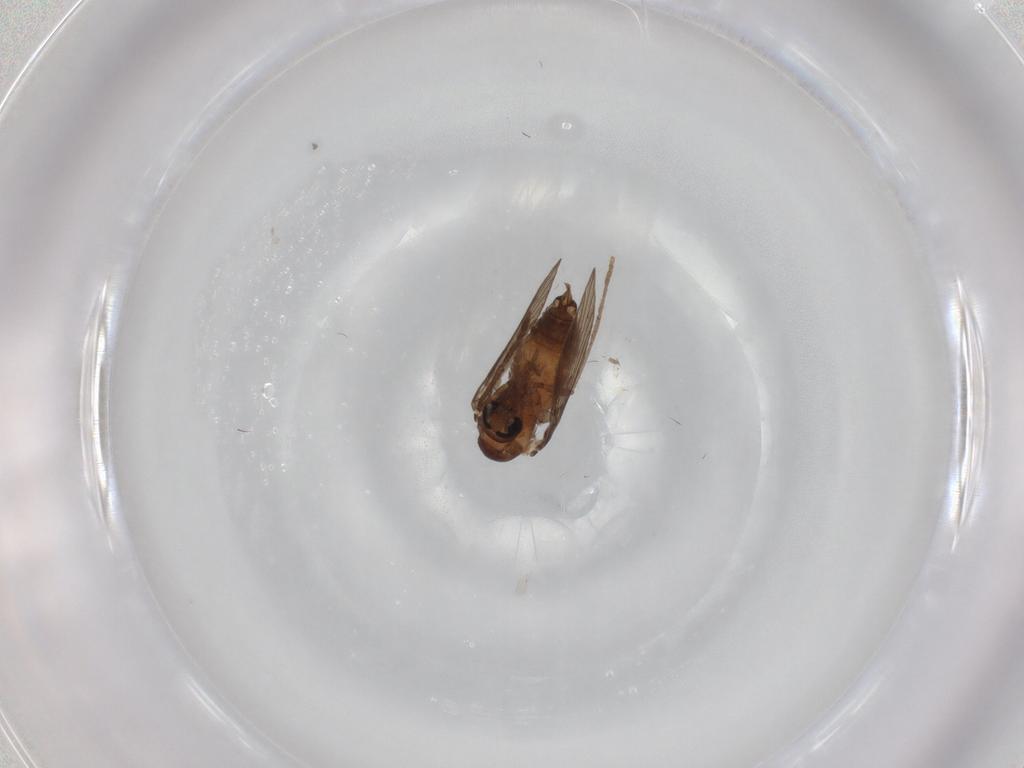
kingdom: Animalia
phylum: Arthropoda
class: Insecta
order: Diptera
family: Psychodidae
